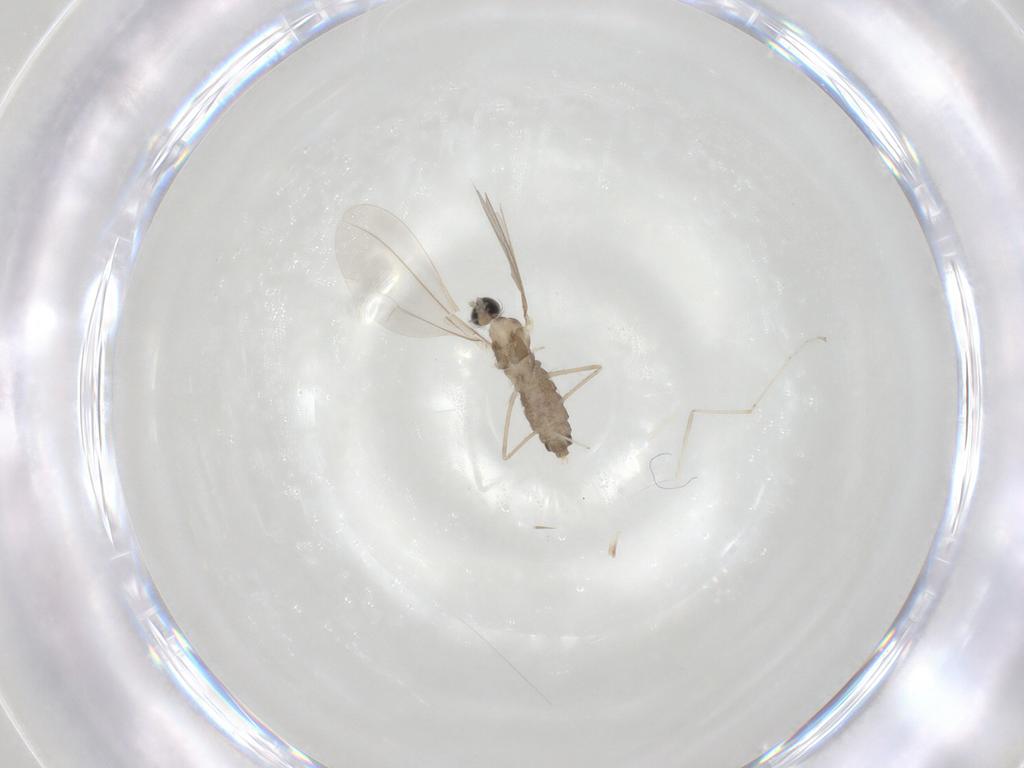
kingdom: Animalia
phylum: Arthropoda
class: Insecta
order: Diptera
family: Cecidomyiidae
